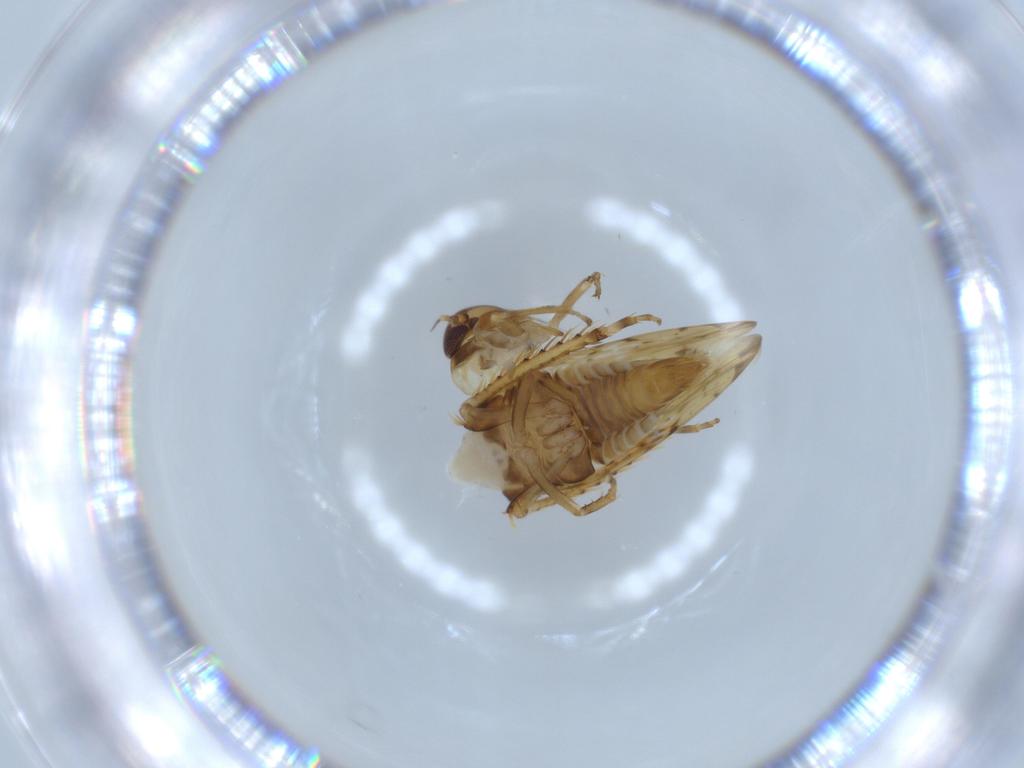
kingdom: Animalia
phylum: Arthropoda
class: Insecta
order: Hemiptera
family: Cicadellidae
